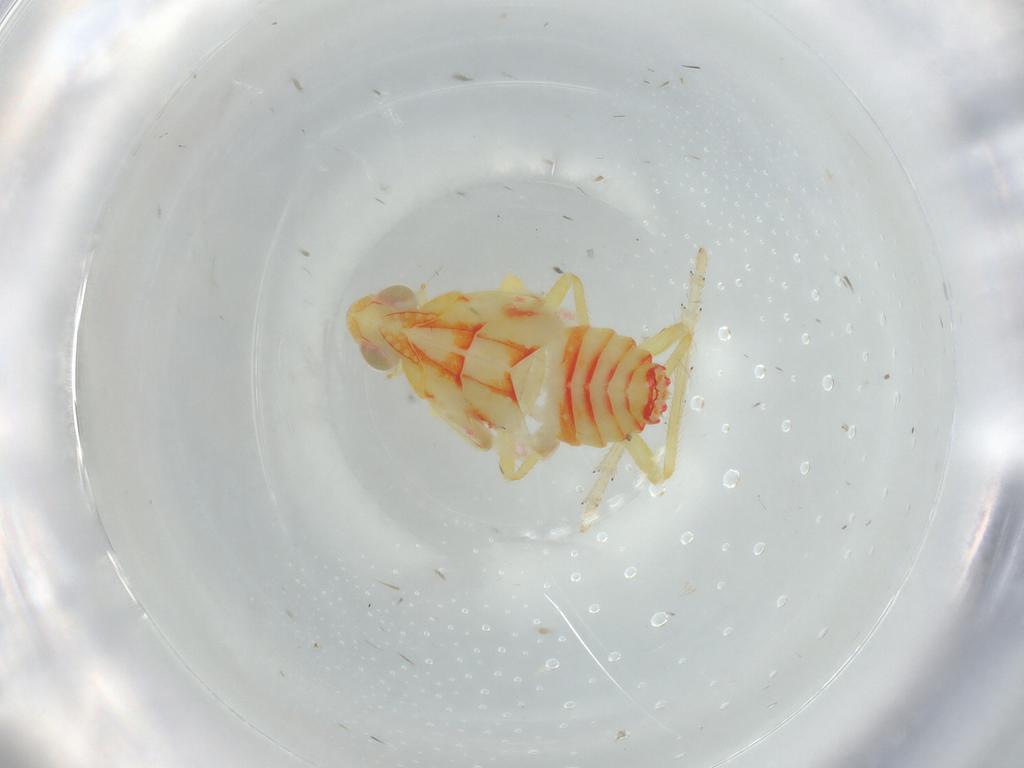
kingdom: Animalia
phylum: Arthropoda
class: Insecta
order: Hemiptera
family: Tropiduchidae
